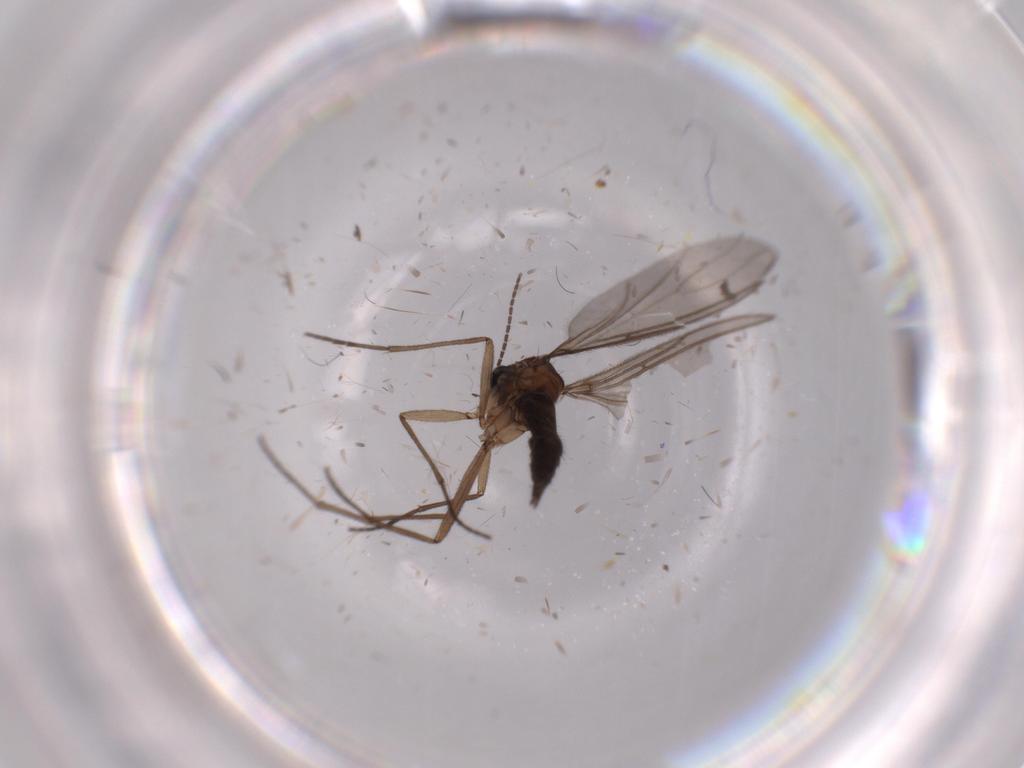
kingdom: Animalia
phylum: Arthropoda
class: Insecta
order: Diptera
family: Sciaridae
